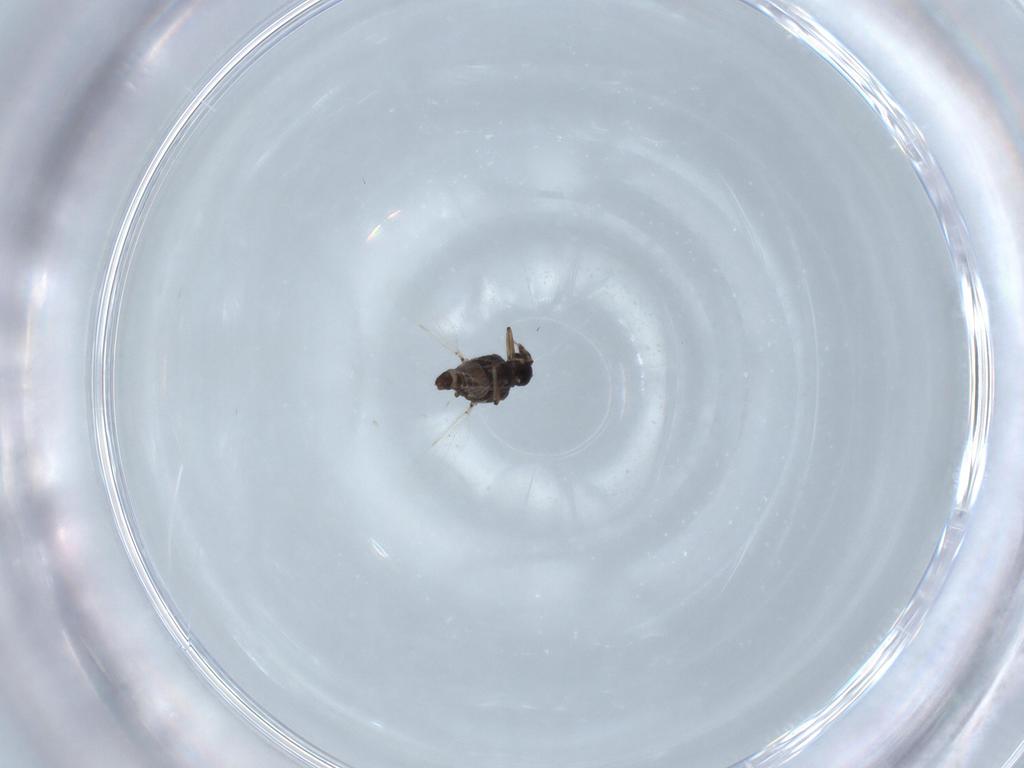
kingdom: Animalia
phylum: Arthropoda
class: Insecta
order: Diptera
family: Ceratopogonidae
